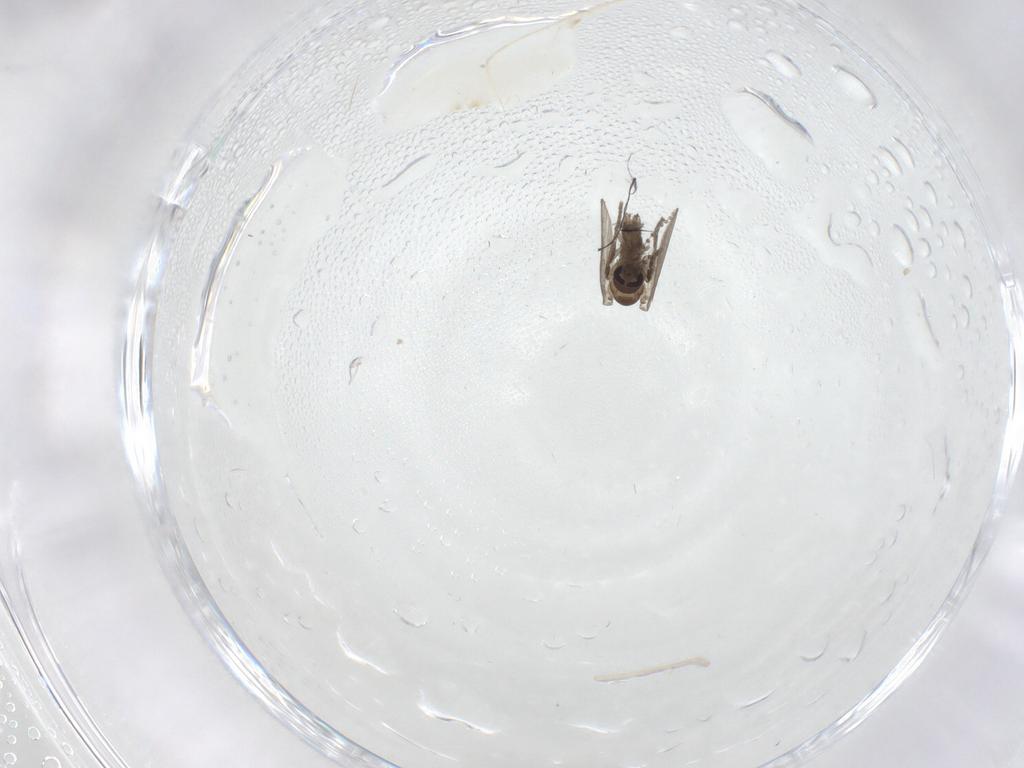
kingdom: Animalia
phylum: Arthropoda
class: Insecta
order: Diptera
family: Psychodidae
